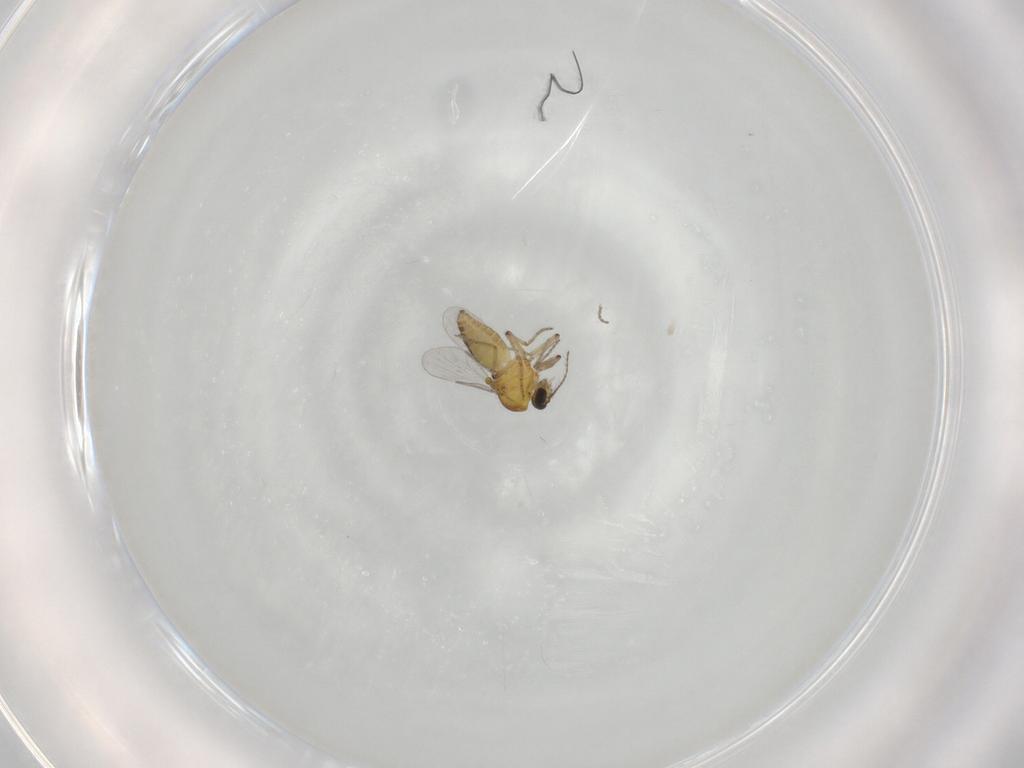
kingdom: Animalia
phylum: Arthropoda
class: Insecta
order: Diptera
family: Ceratopogonidae
